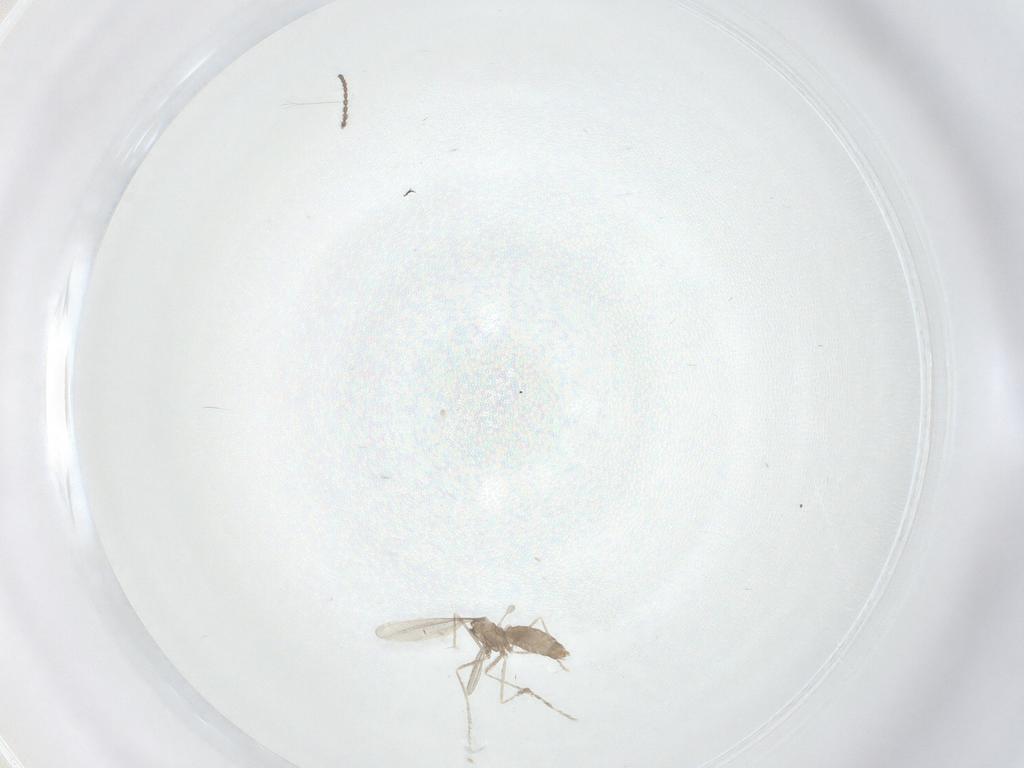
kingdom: Animalia
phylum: Arthropoda
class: Insecta
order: Diptera
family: Cecidomyiidae
